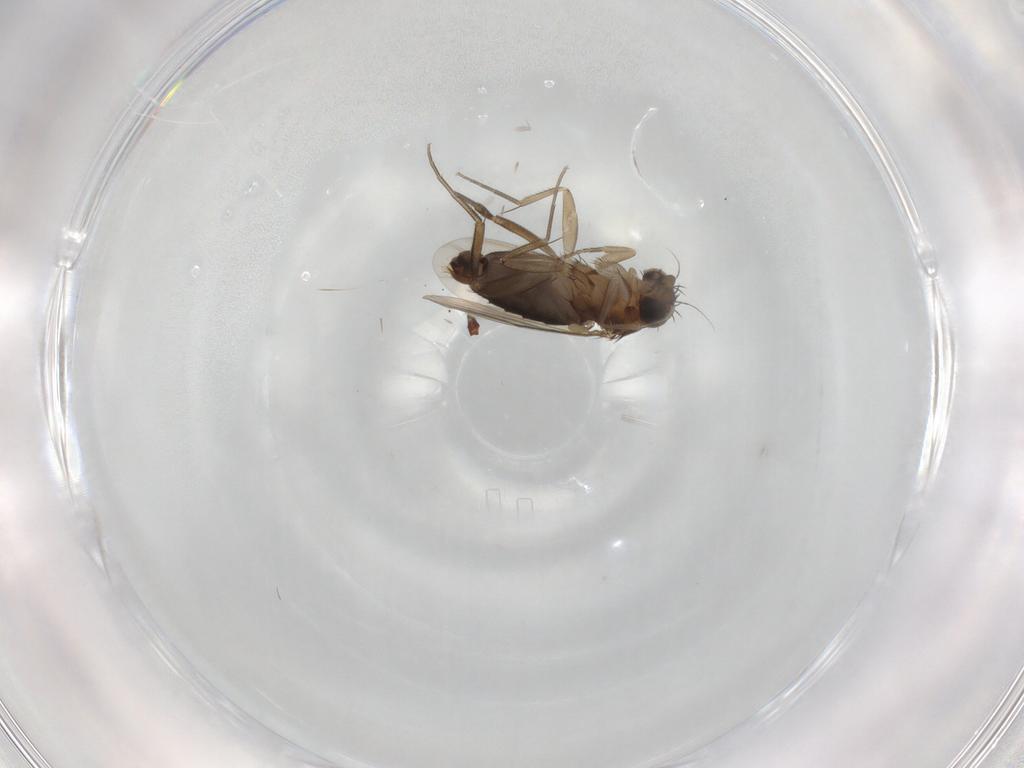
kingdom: Animalia
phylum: Arthropoda
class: Insecta
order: Diptera
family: Phoridae
